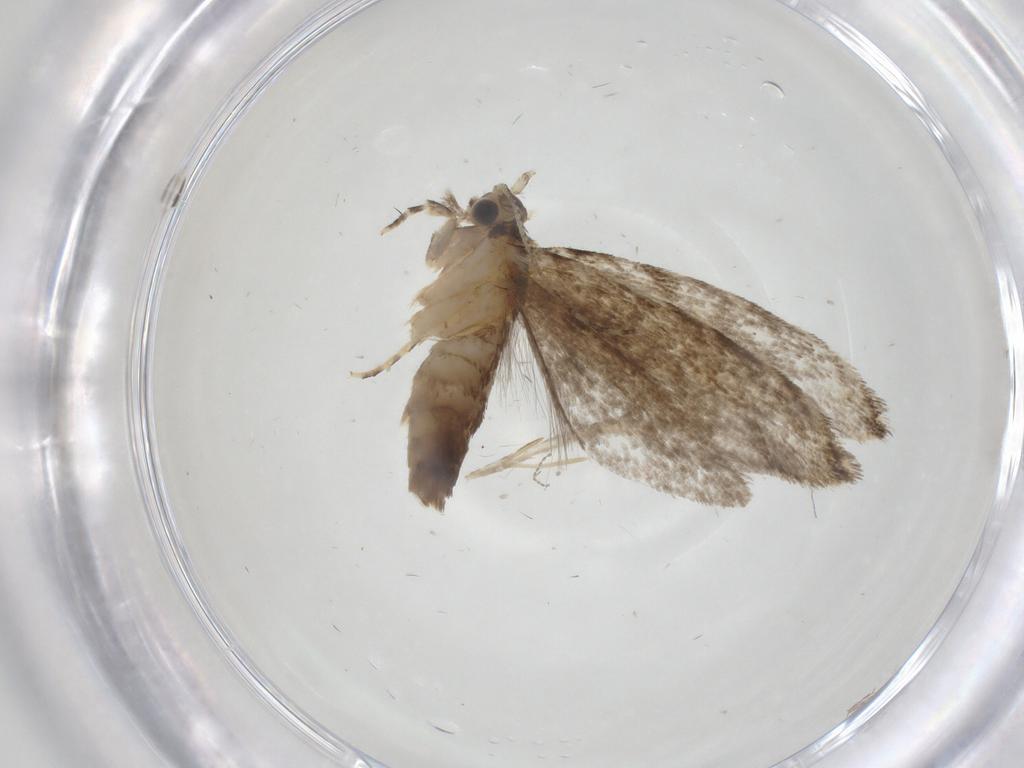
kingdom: Animalia
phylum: Arthropoda
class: Insecta
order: Lepidoptera
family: Tineidae
